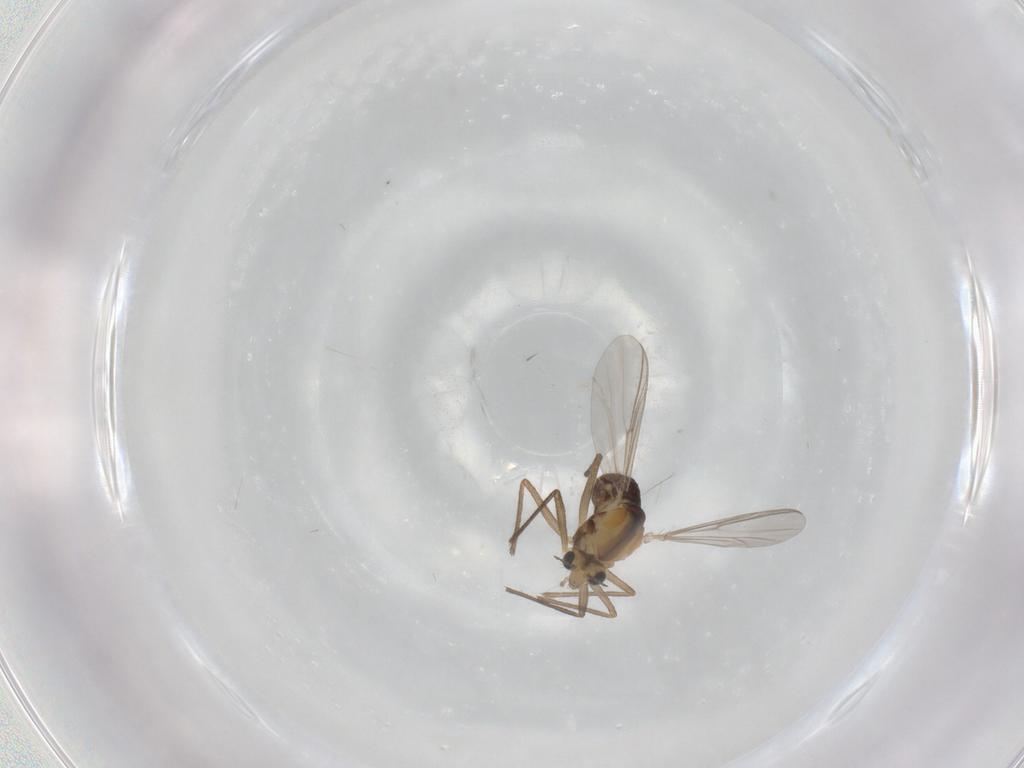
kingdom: Animalia
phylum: Arthropoda
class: Insecta
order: Diptera
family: Chironomidae
